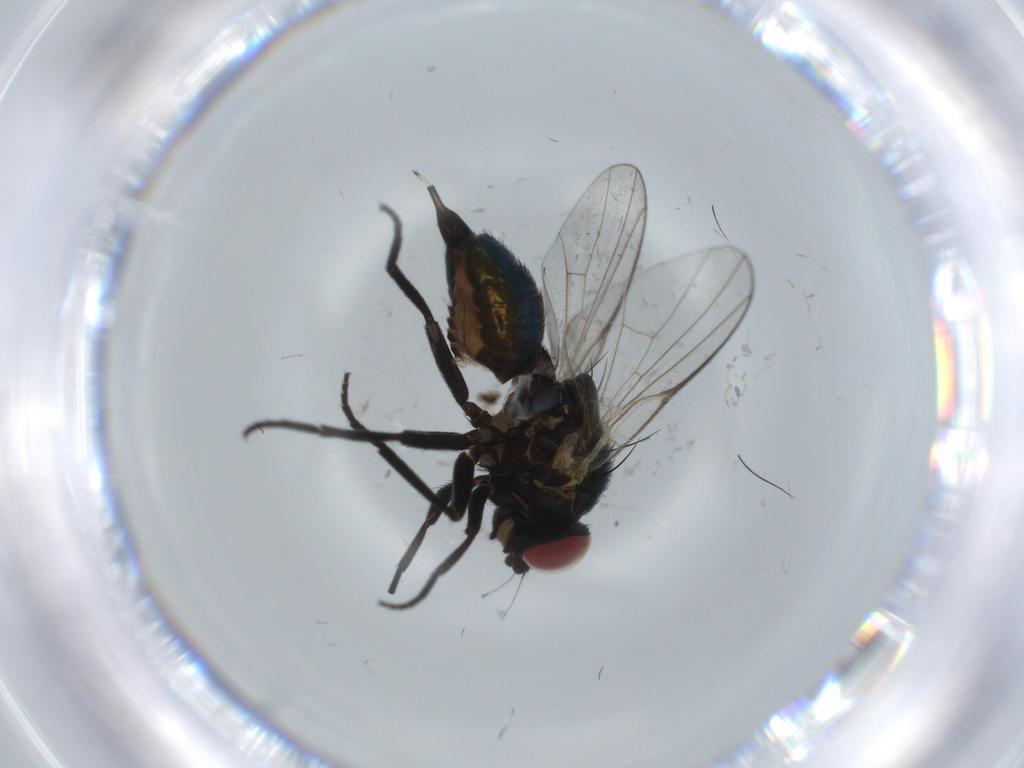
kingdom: Animalia
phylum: Arthropoda
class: Insecta
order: Diptera
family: Agromyzidae
